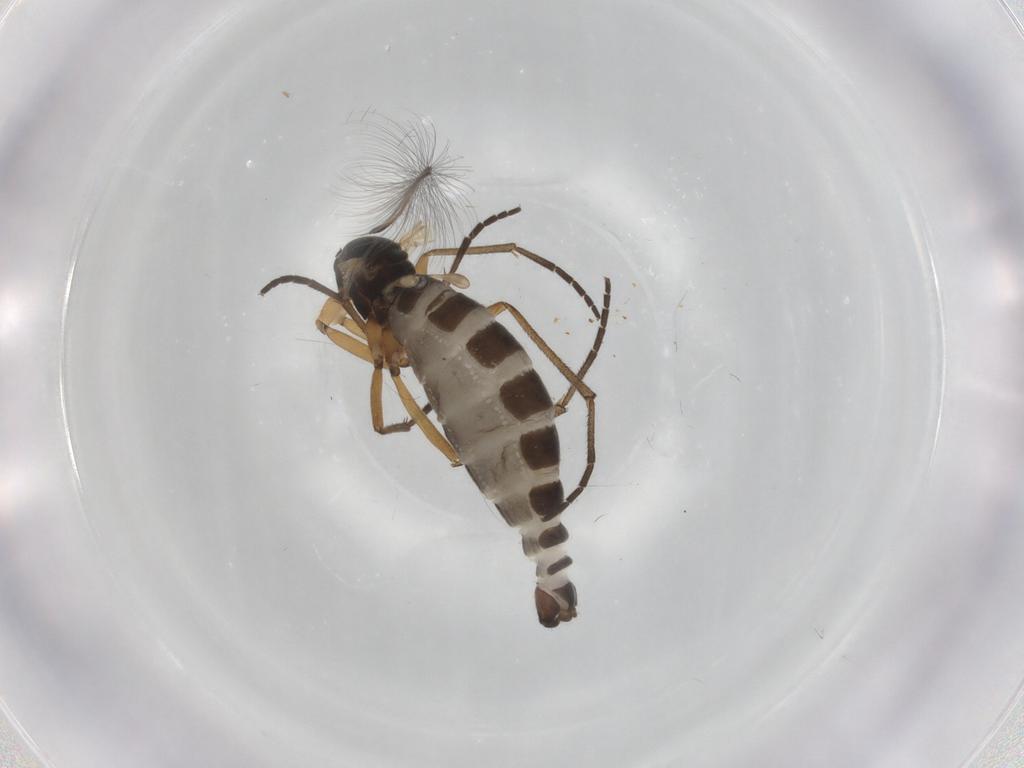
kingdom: Animalia
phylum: Arthropoda
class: Insecta
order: Diptera
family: Sciaridae
